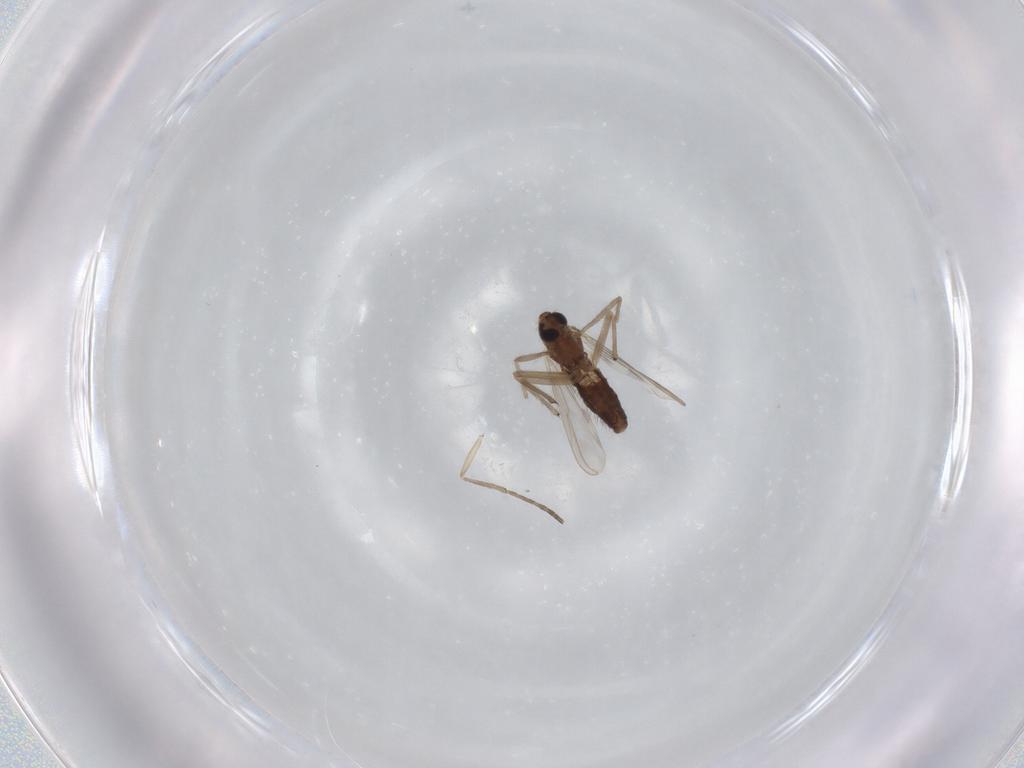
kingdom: Animalia
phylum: Arthropoda
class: Insecta
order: Diptera
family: Chironomidae
